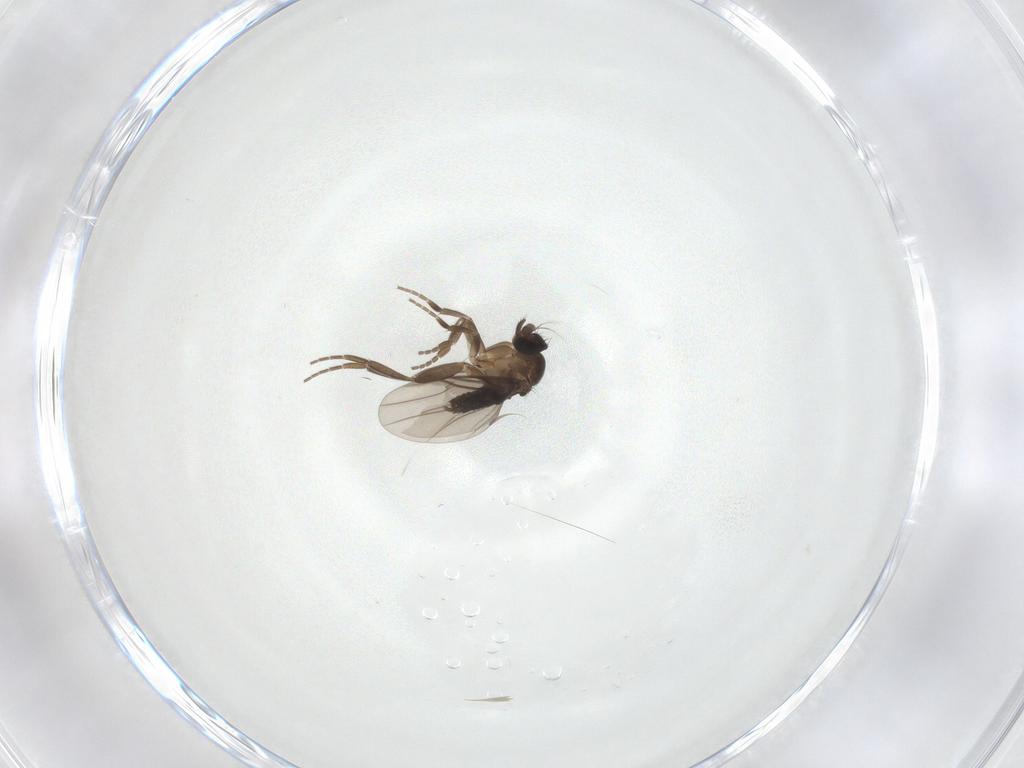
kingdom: Animalia
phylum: Arthropoda
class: Insecta
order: Diptera
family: Phoridae
